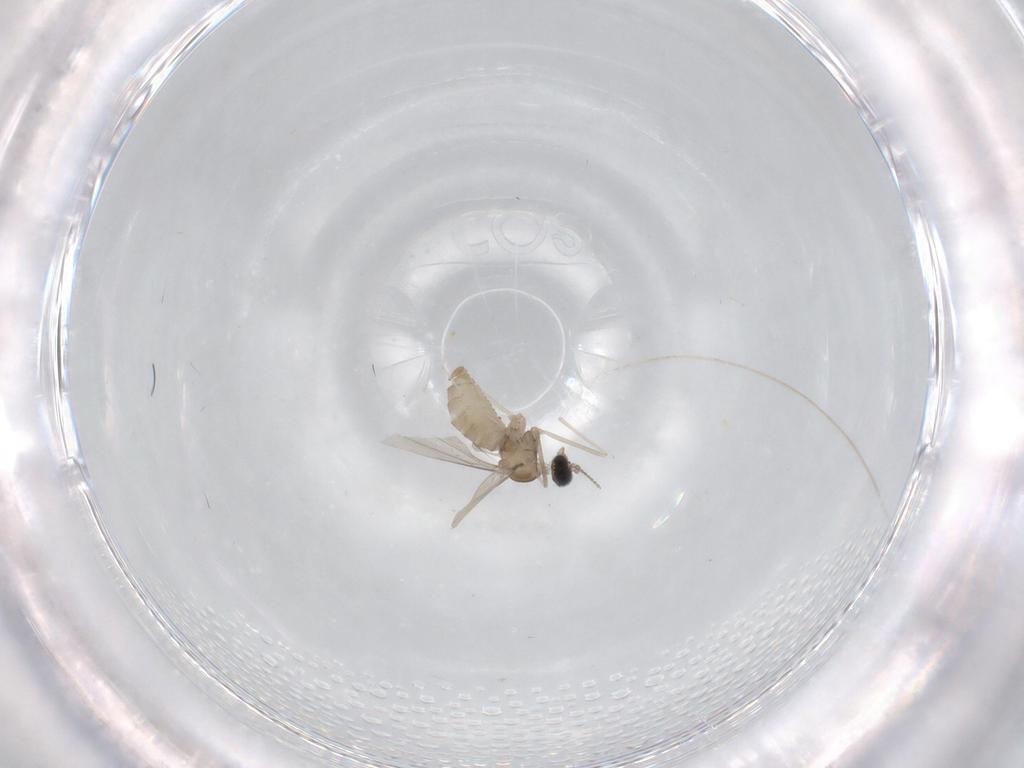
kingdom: Animalia
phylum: Arthropoda
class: Insecta
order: Diptera
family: Cecidomyiidae
